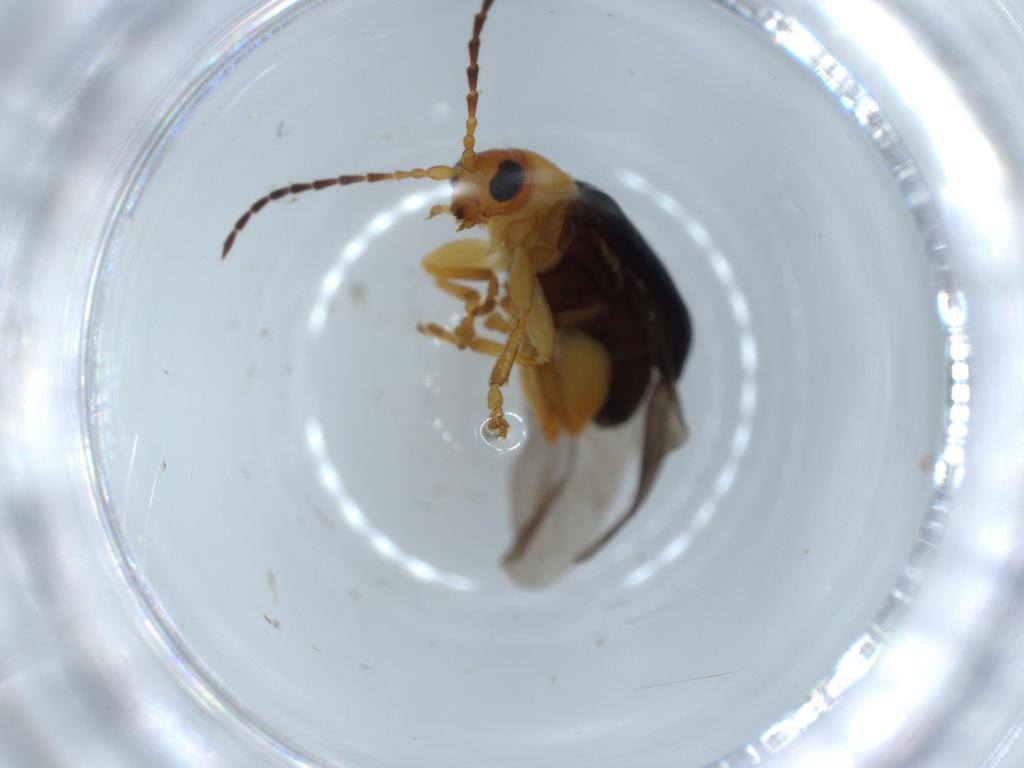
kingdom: Animalia
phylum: Arthropoda
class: Insecta
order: Coleoptera
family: Chrysomelidae
